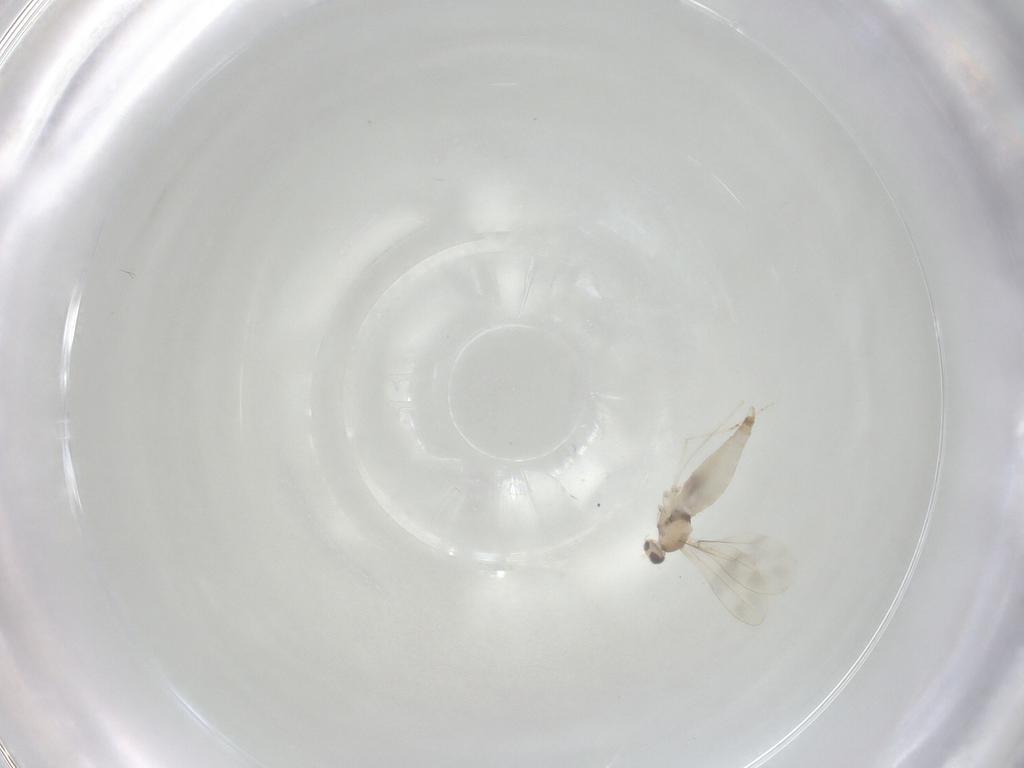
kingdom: Animalia
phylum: Arthropoda
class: Insecta
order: Diptera
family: Cecidomyiidae
